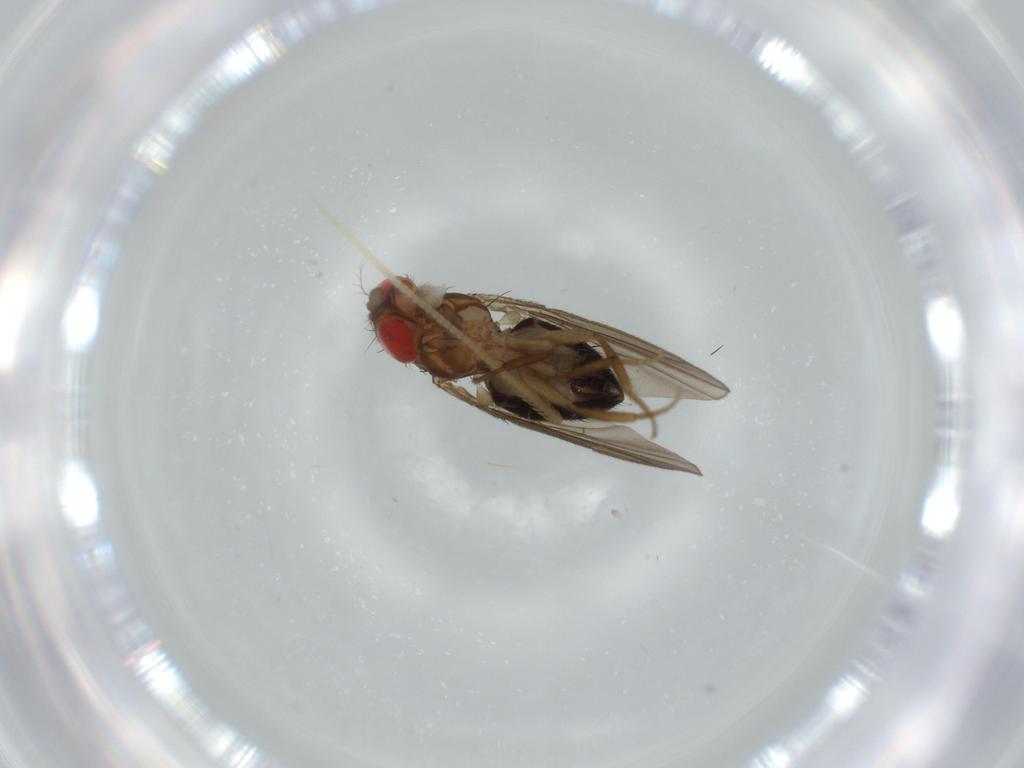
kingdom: Animalia
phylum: Arthropoda
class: Insecta
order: Diptera
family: Drosophilidae
